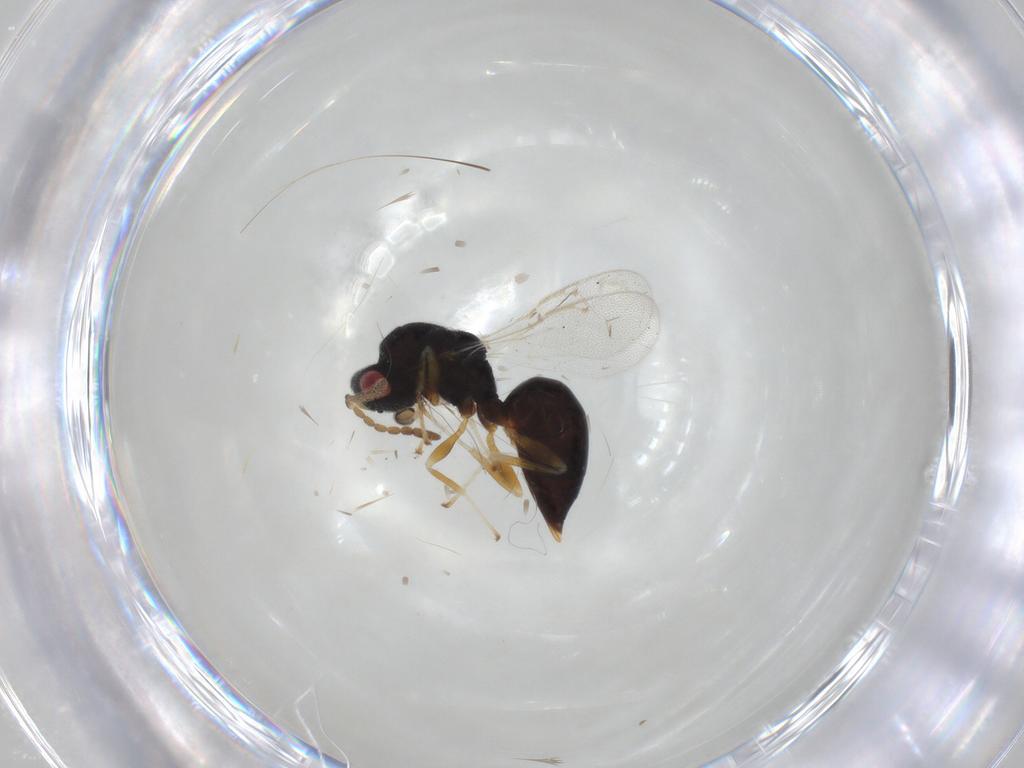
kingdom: Animalia
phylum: Arthropoda
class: Insecta
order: Hymenoptera
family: Eurytomidae
